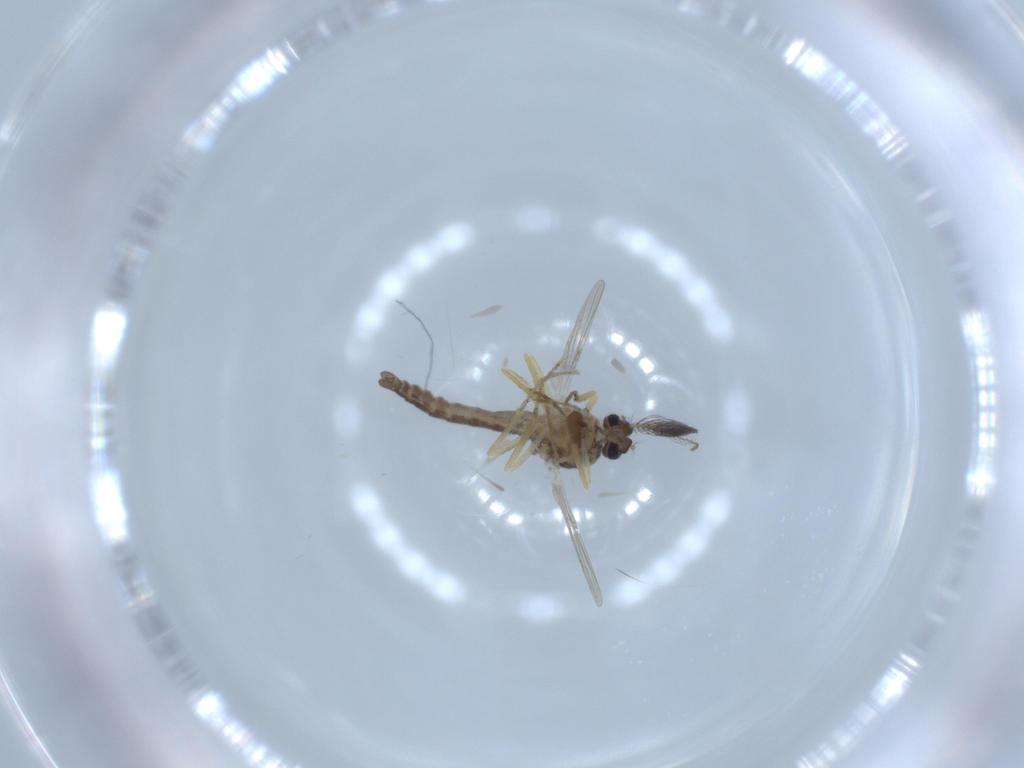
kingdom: Animalia
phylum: Arthropoda
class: Insecta
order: Diptera
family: Ceratopogonidae
